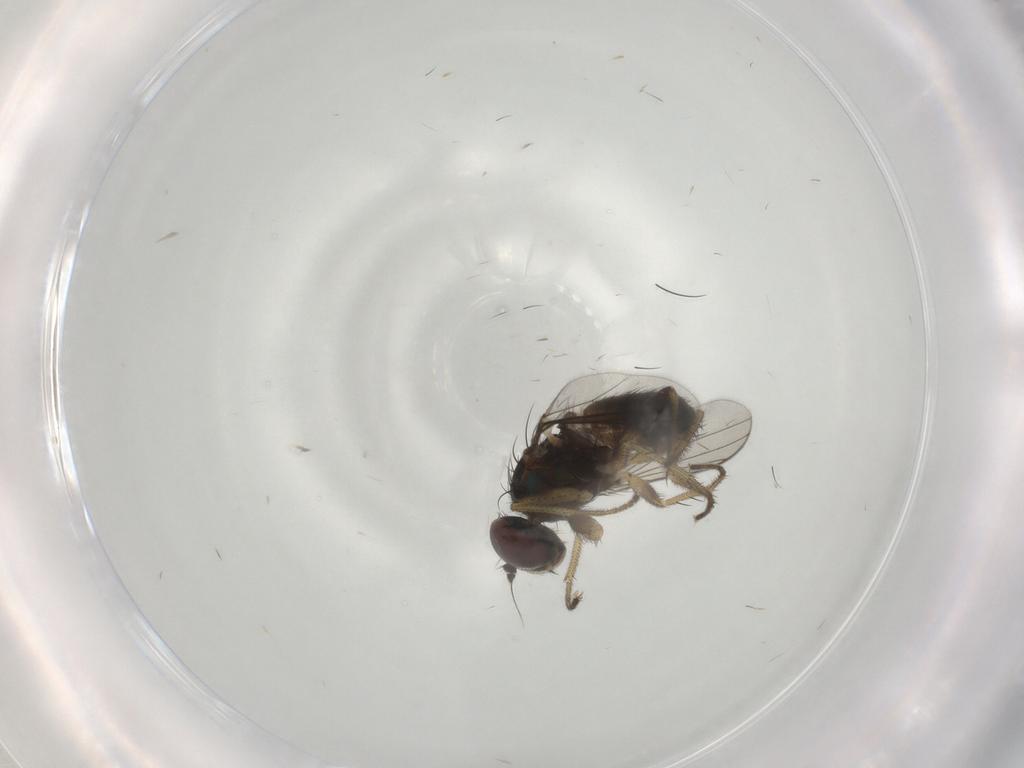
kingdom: Animalia
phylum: Arthropoda
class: Insecta
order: Diptera
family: Dolichopodidae
